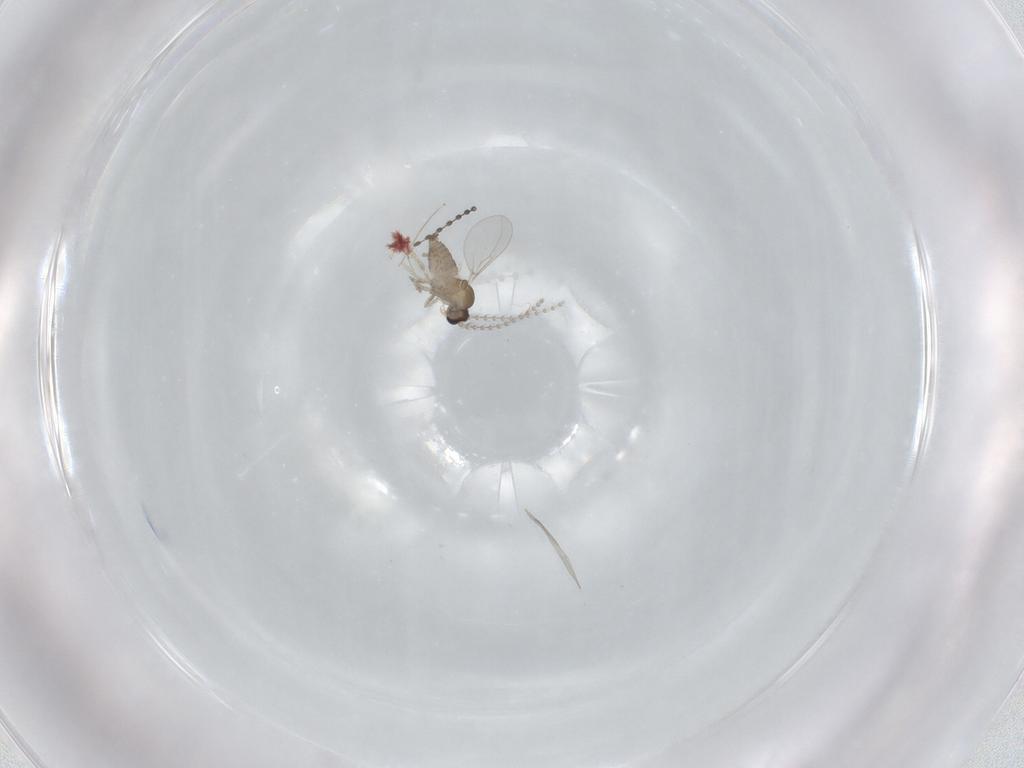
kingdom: Animalia
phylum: Arthropoda
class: Insecta
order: Diptera
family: Cecidomyiidae
